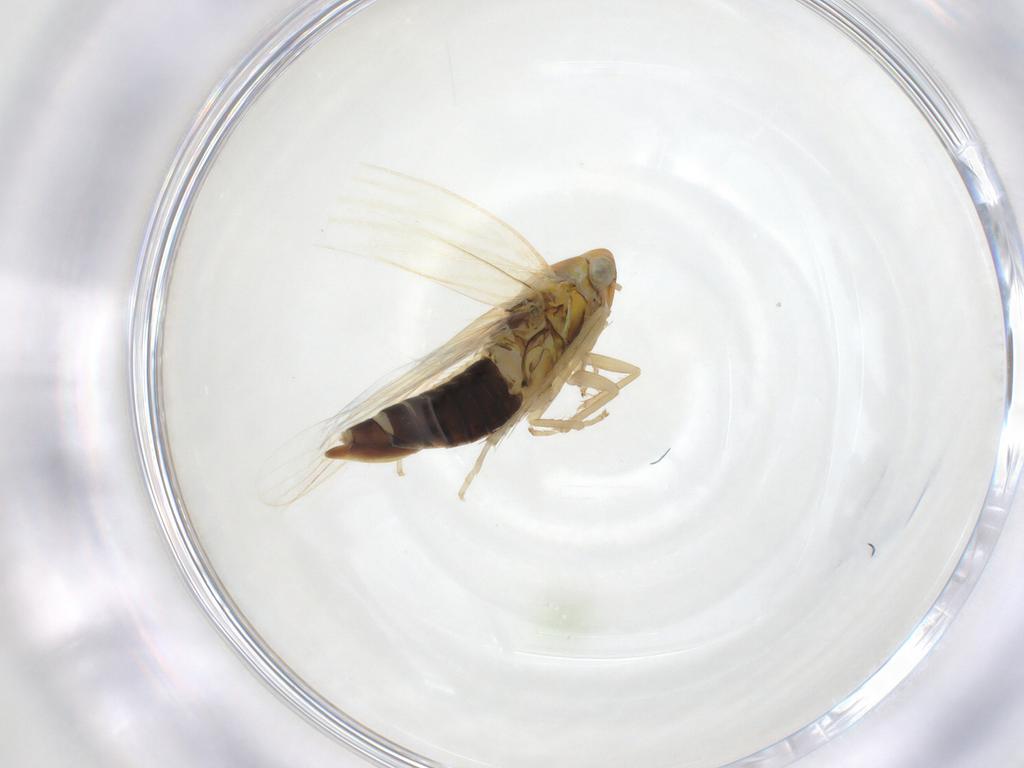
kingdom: Animalia
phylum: Arthropoda
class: Insecta
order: Hemiptera
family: Cicadellidae
